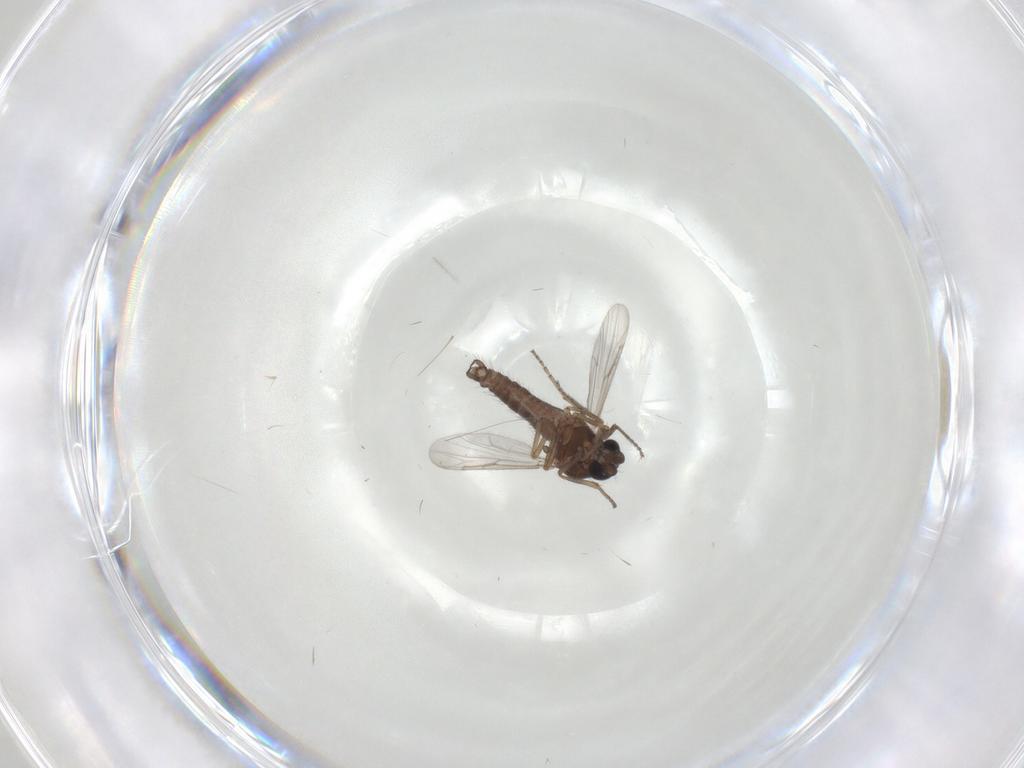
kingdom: Animalia
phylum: Arthropoda
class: Insecta
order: Diptera
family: Ceratopogonidae
